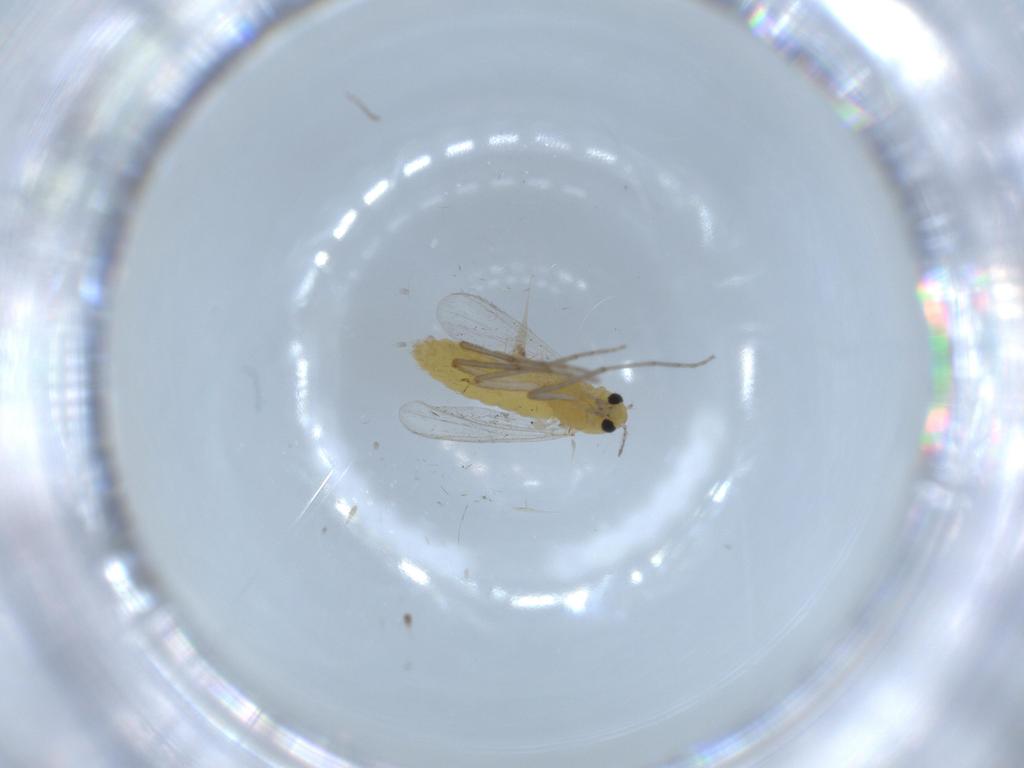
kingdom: Animalia
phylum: Arthropoda
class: Insecta
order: Diptera
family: Chironomidae
